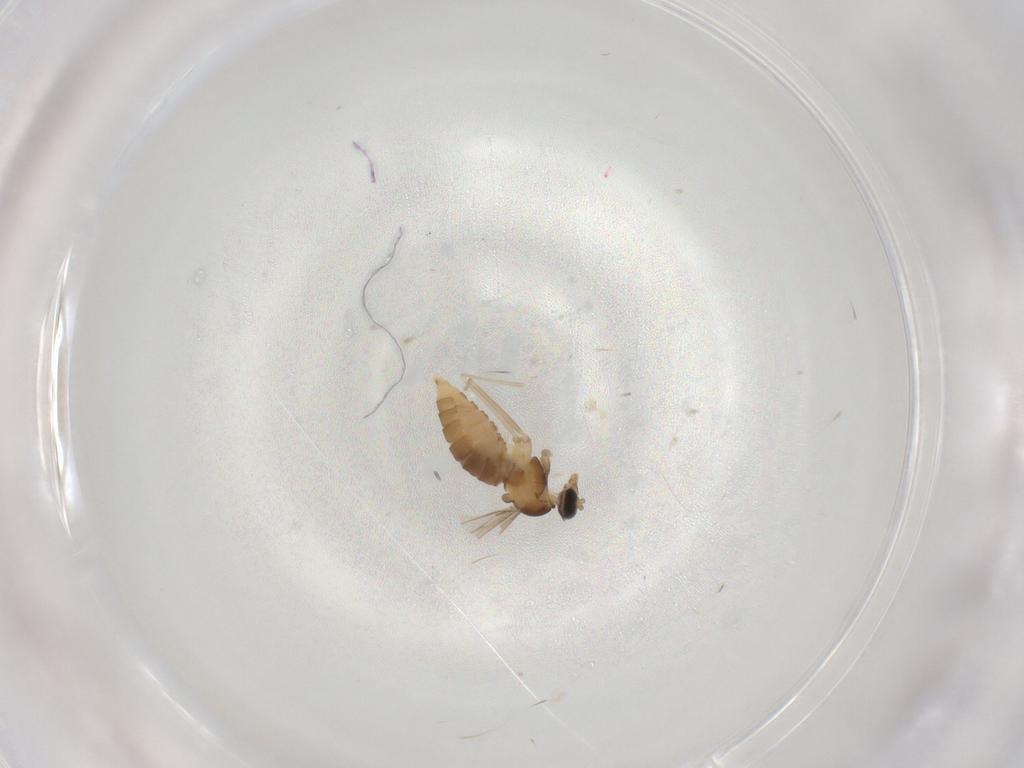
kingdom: Animalia
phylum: Arthropoda
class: Insecta
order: Diptera
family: Cecidomyiidae
